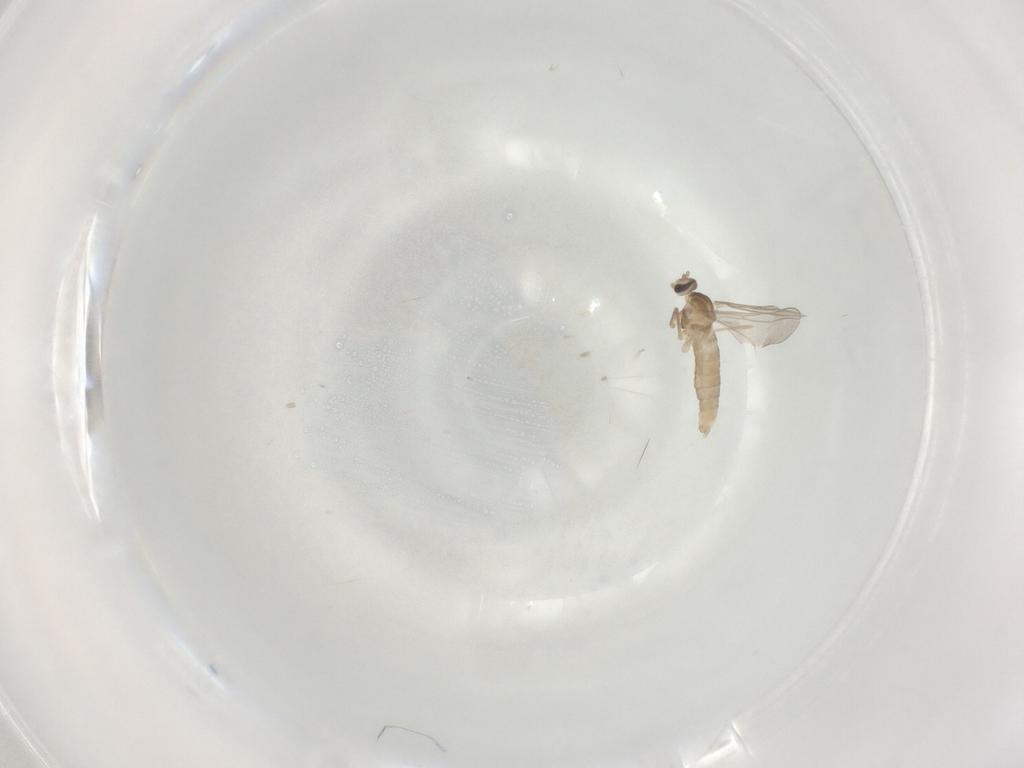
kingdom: Animalia
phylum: Arthropoda
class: Insecta
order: Diptera
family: Cecidomyiidae
